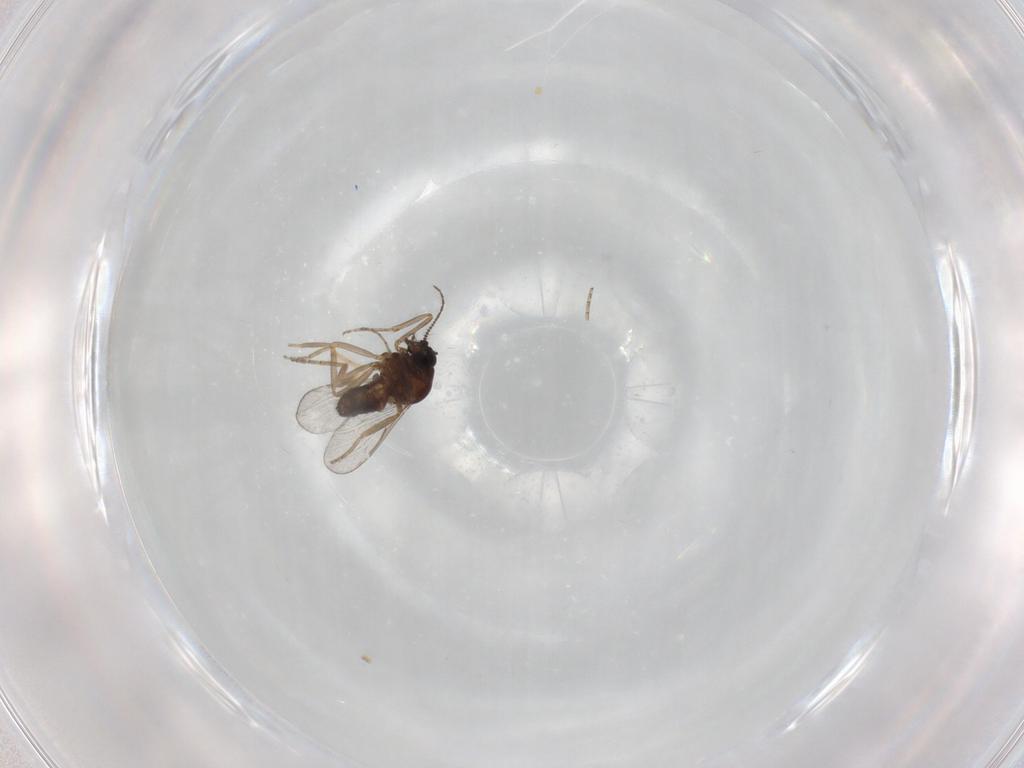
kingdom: Animalia
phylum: Arthropoda
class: Insecta
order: Diptera
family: Ceratopogonidae
